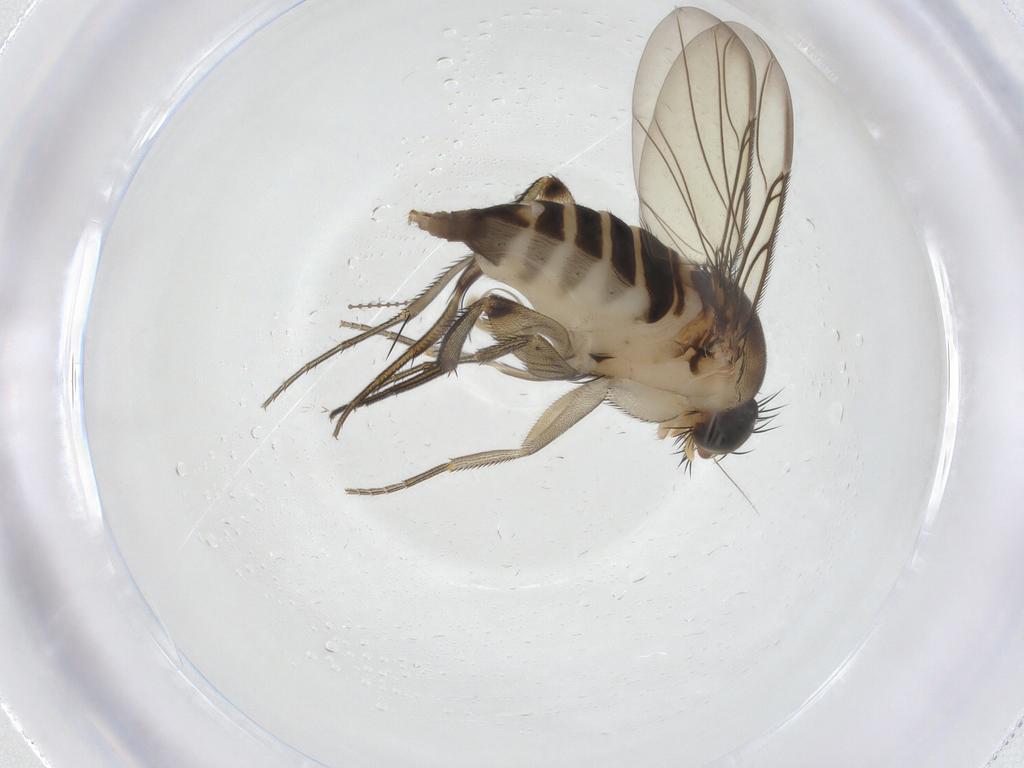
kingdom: Animalia
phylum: Arthropoda
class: Insecta
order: Diptera
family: Phoridae
